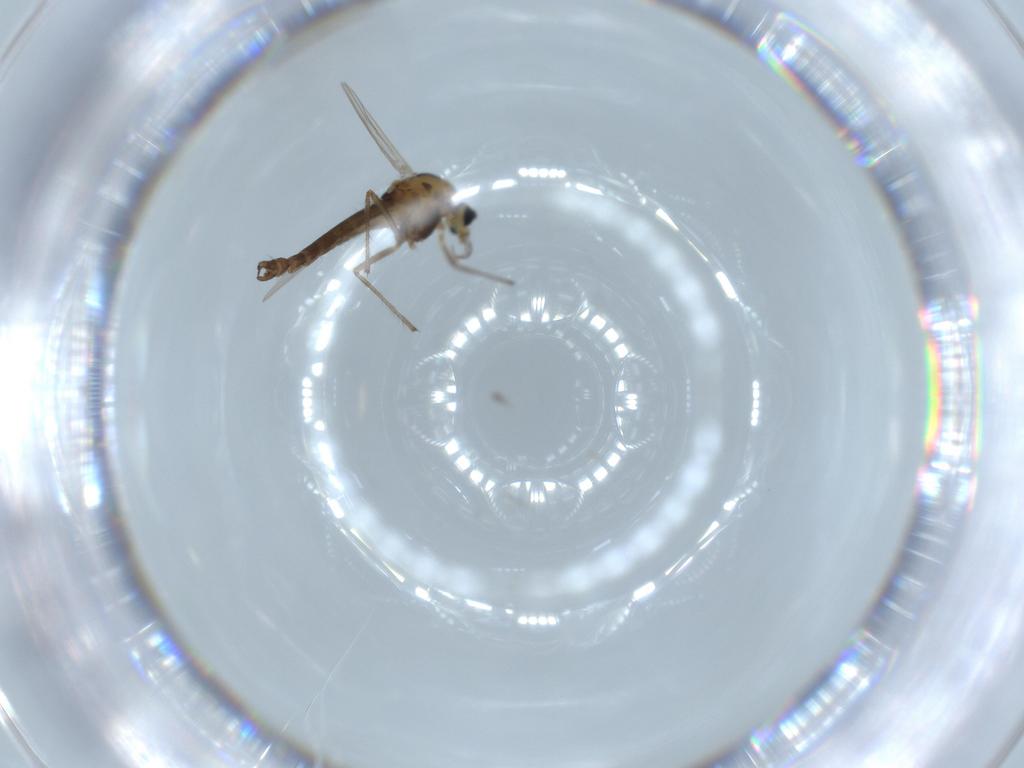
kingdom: Animalia
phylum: Arthropoda
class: Insecta
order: Diptera
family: Chironomidae
